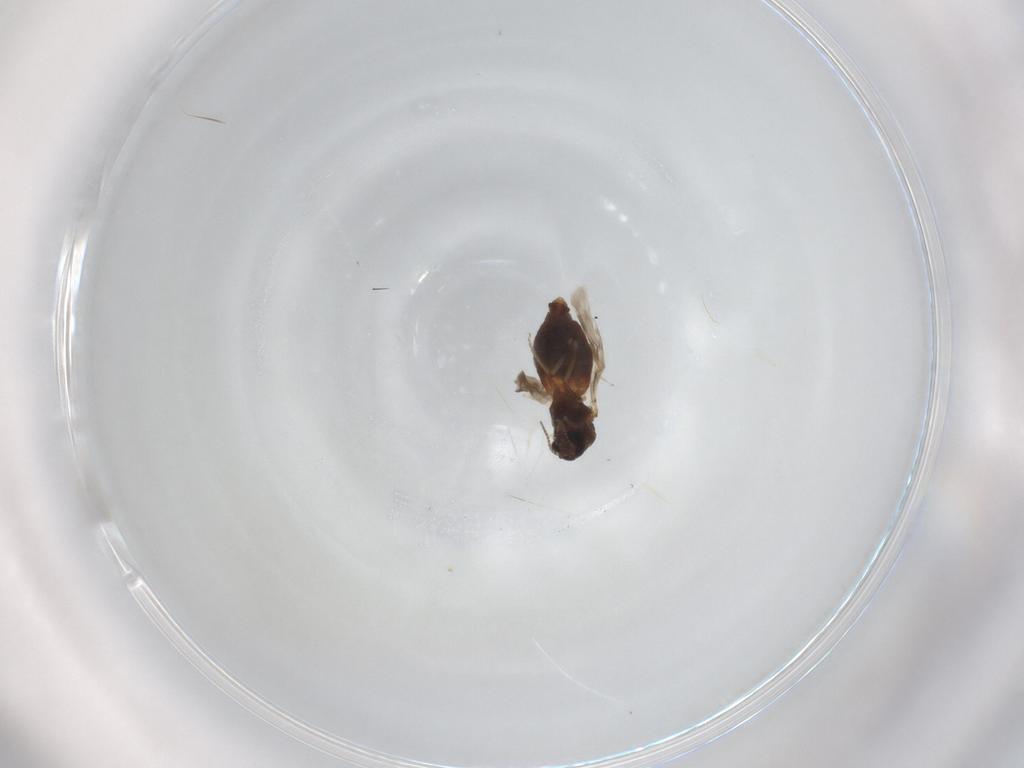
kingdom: Animalia
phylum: Arthropoda
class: Insecta
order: Diptera
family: Ceratopogonidae
